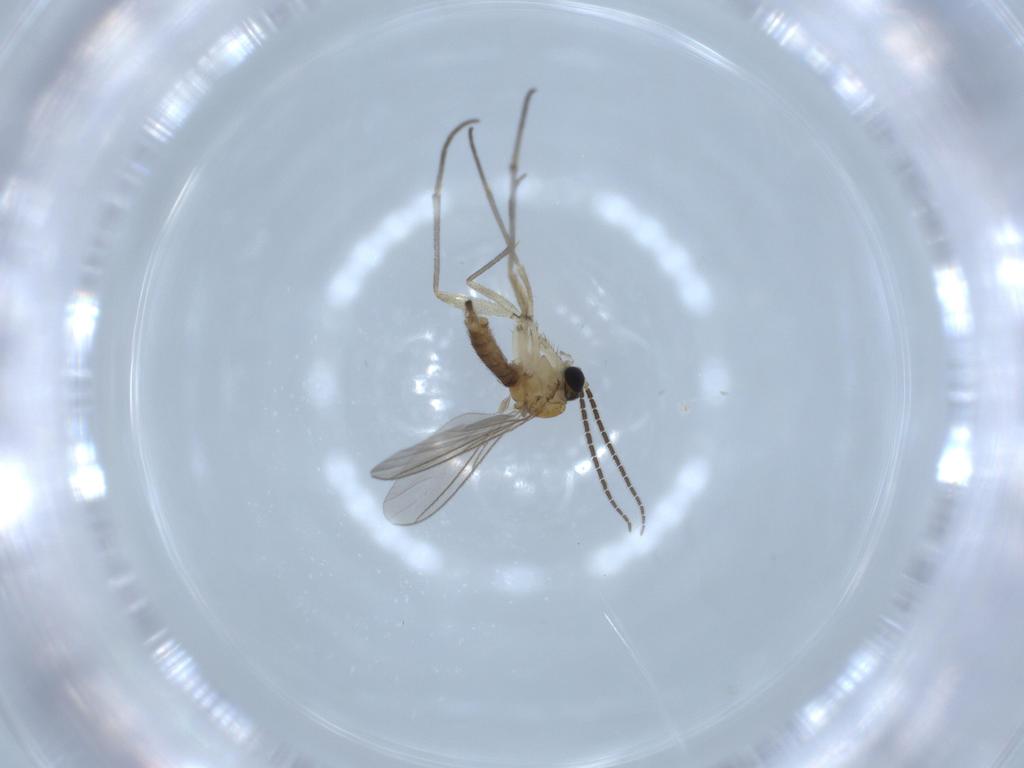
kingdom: Animalia
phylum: Arthropoda
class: Insecta
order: Diptera
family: Sciaridae
